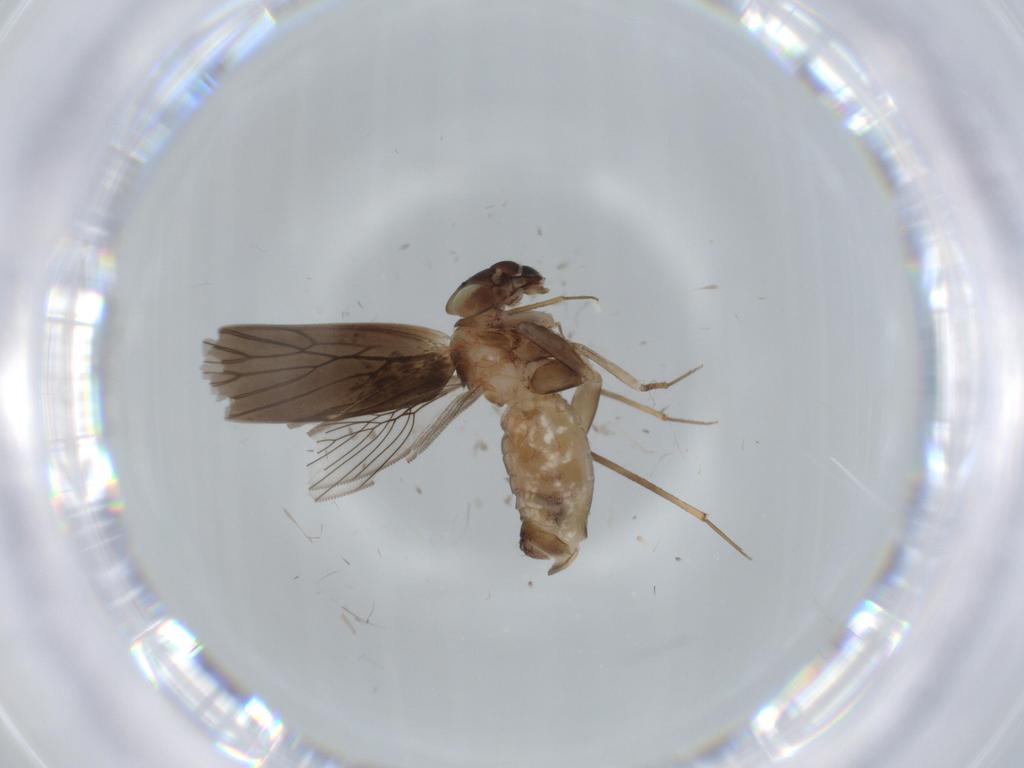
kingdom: Animalia
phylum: Arthropoda
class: Insecta
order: Psocodea
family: Lepidopsocidae
